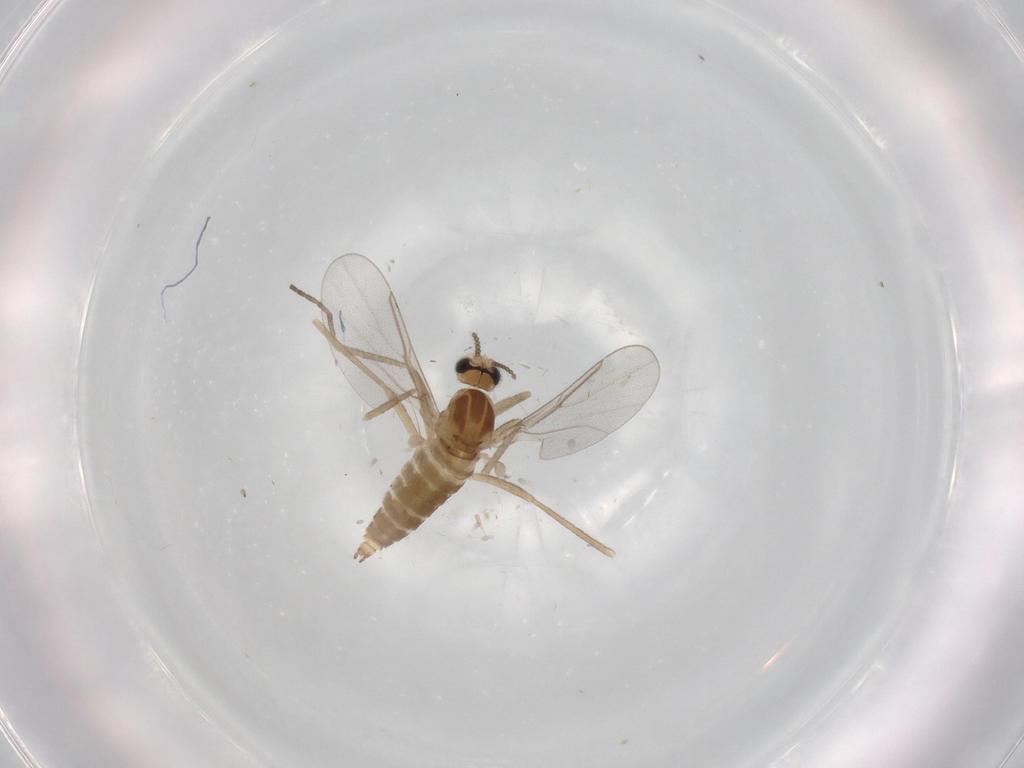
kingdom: Animalia
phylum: Arthropoda
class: Insecta
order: Diptera
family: Cecidomyiidae
